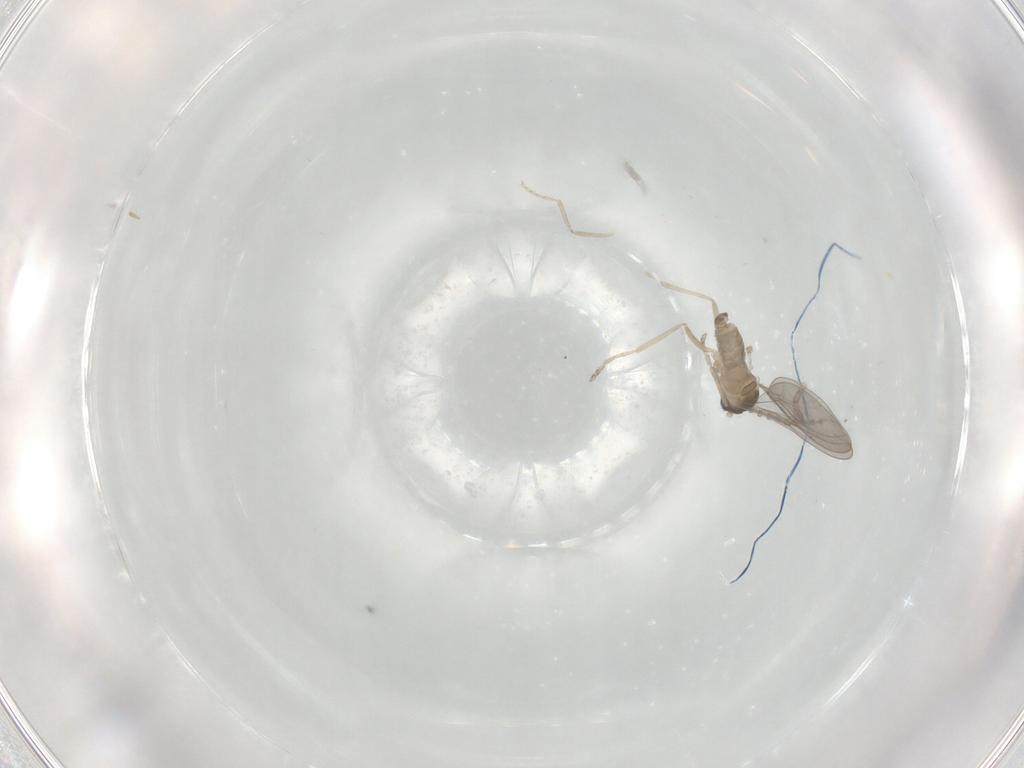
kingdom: Animalia
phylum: Arthropoda
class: Insecta
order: Diptera
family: Cecidomyiidae
